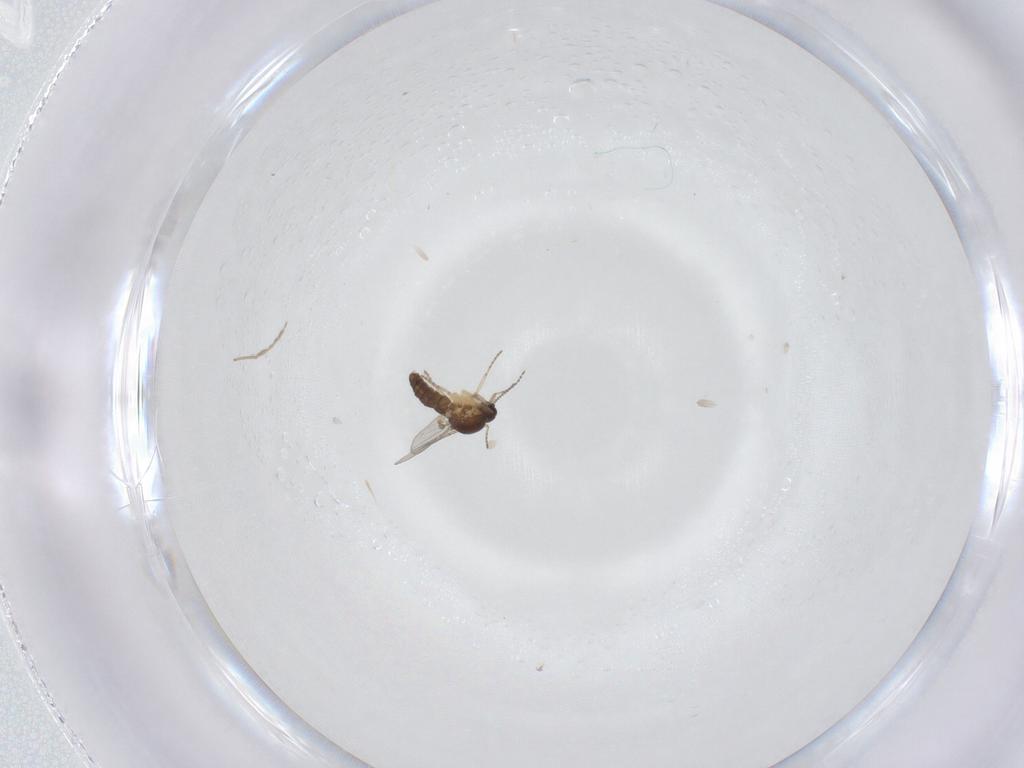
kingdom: Animalia
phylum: Arthropoda
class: Insecta
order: Diptera
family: Ceratopogonidae
